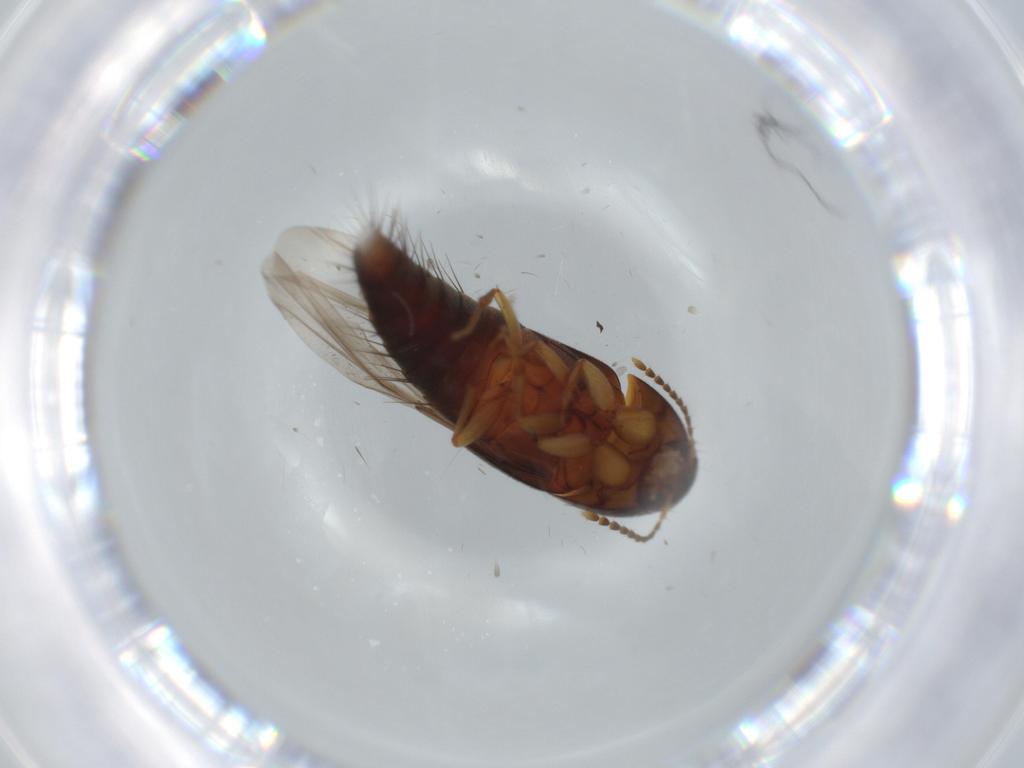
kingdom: Animalia
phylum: Arthropoda
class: Insecta
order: Coleoptera
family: Staphylinidae
